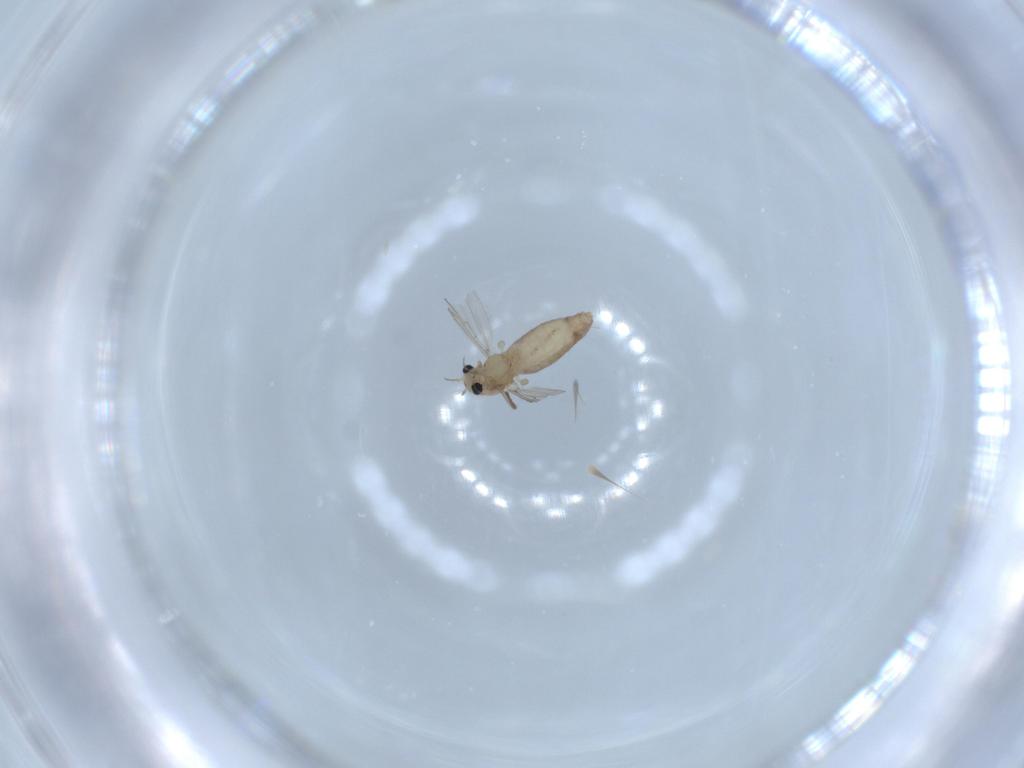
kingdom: Animalia
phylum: Arthropoda
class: Insecta
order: Diptera
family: Chironomidae
